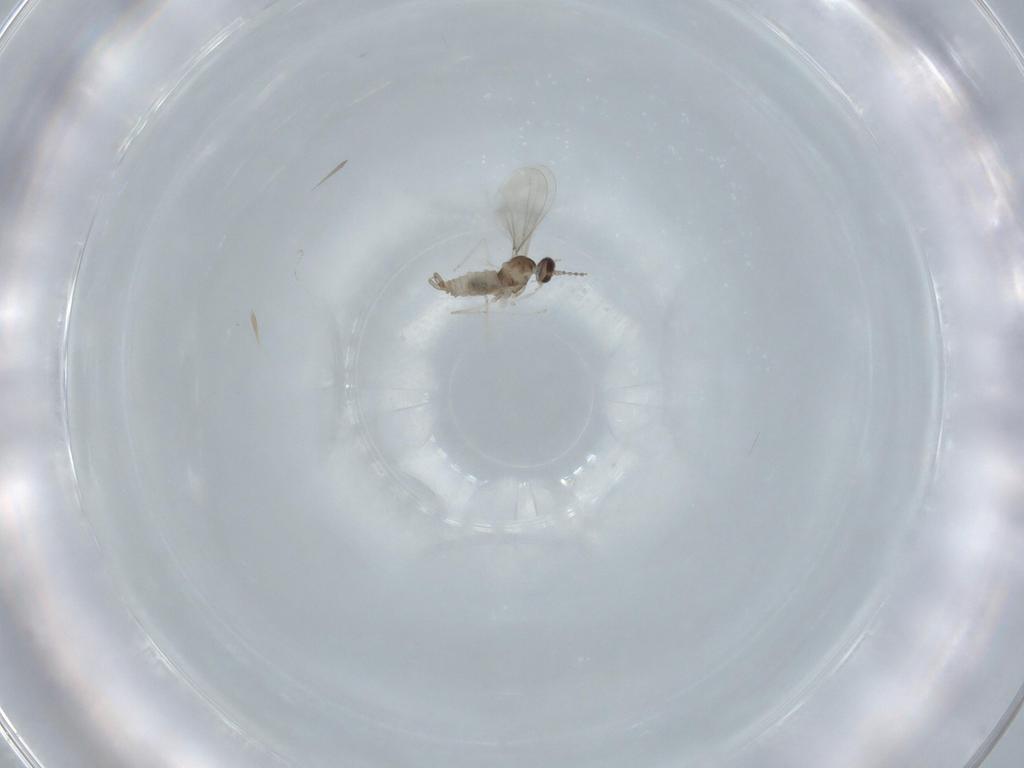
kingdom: Animalia
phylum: Arthropoda
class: Insecta
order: Diptera
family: Cecidomyiidae
